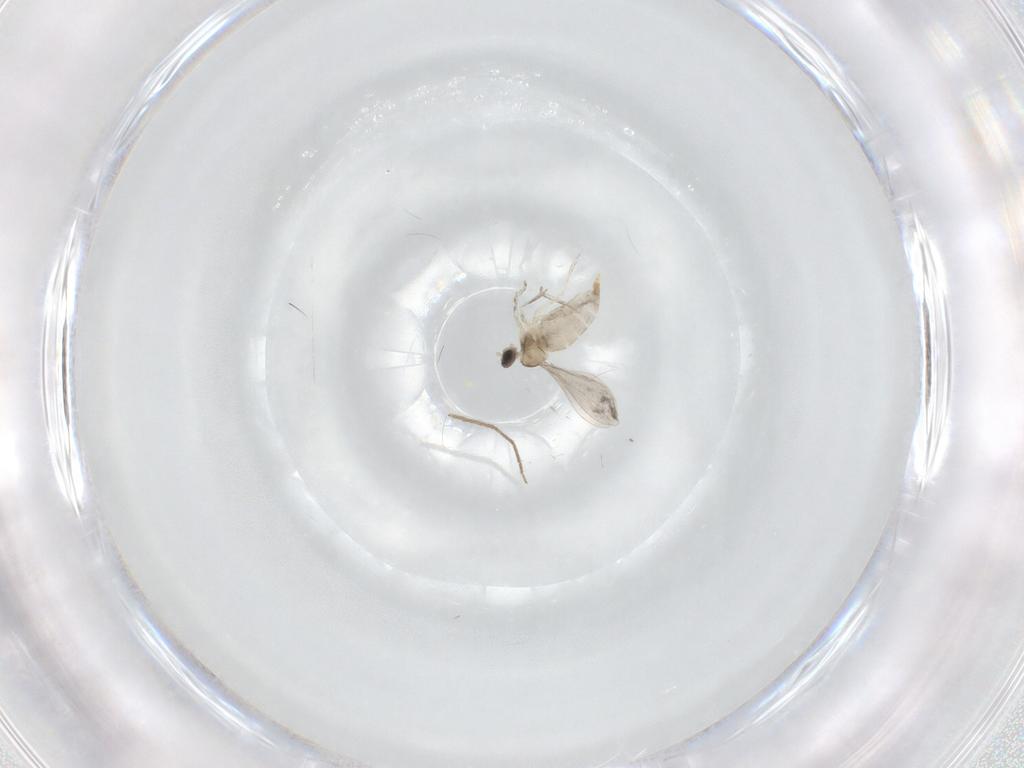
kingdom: Animalia
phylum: Arthropoda
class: Insecta
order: Diptera
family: Chironomidae
